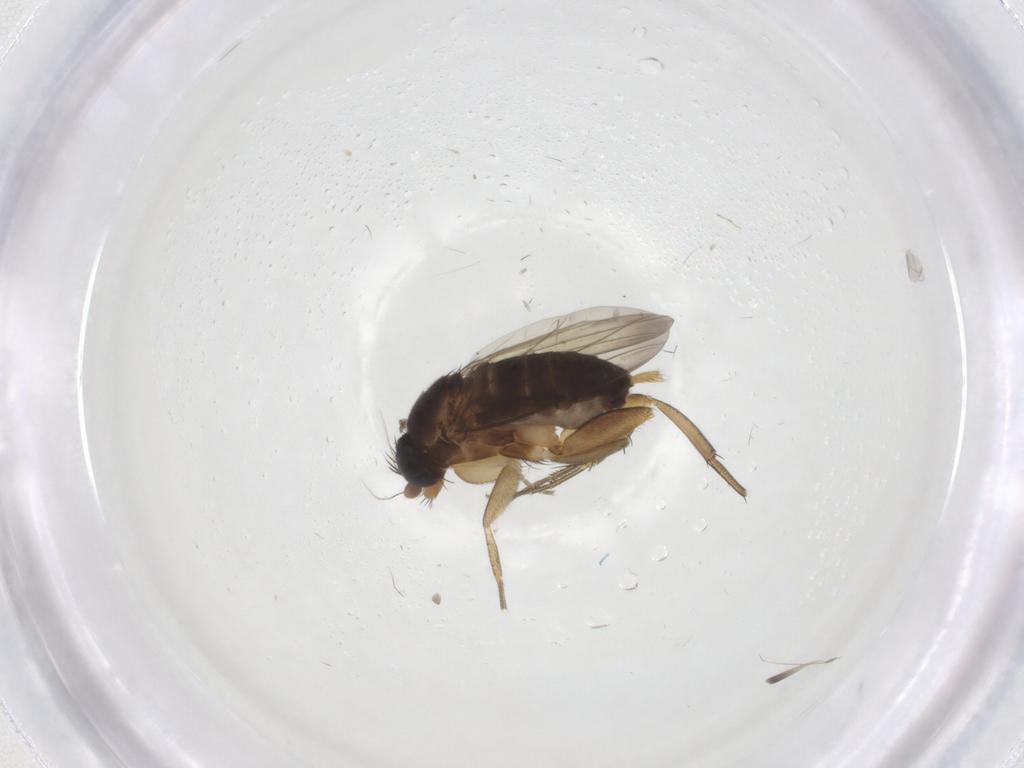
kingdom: Animalia
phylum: Arthropoda
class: Insecta
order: Diptera
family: Phoridae
